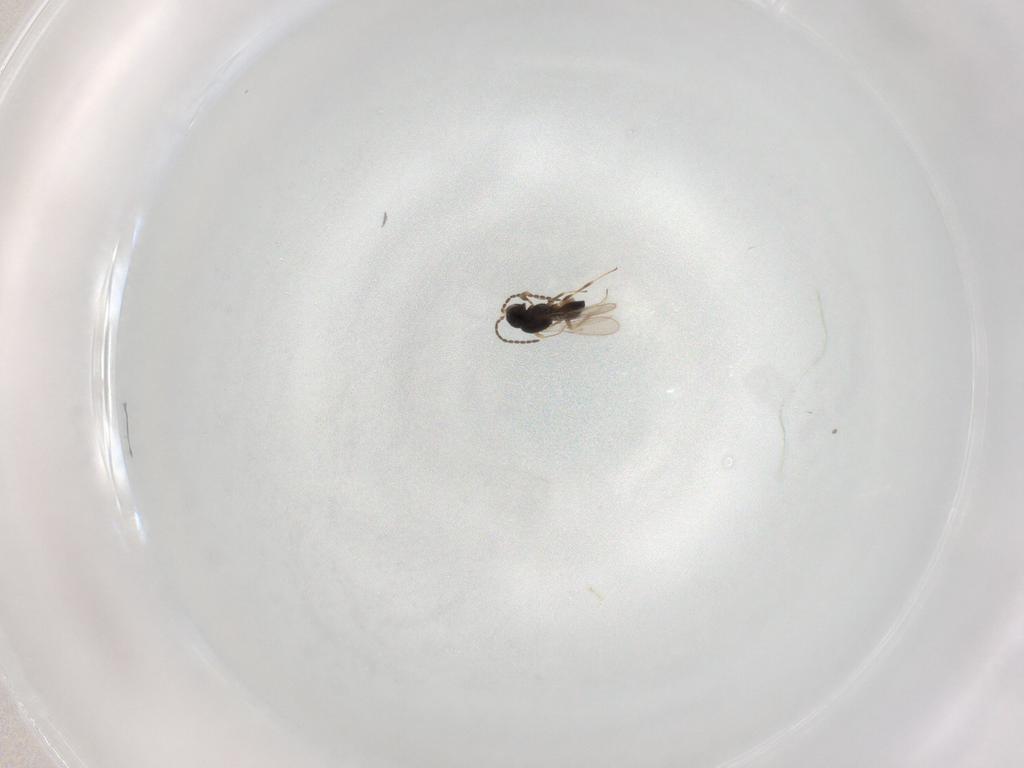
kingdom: Animalia
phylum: Arthropoda
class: Insecta
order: Hymenoptera
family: Scelionidae
